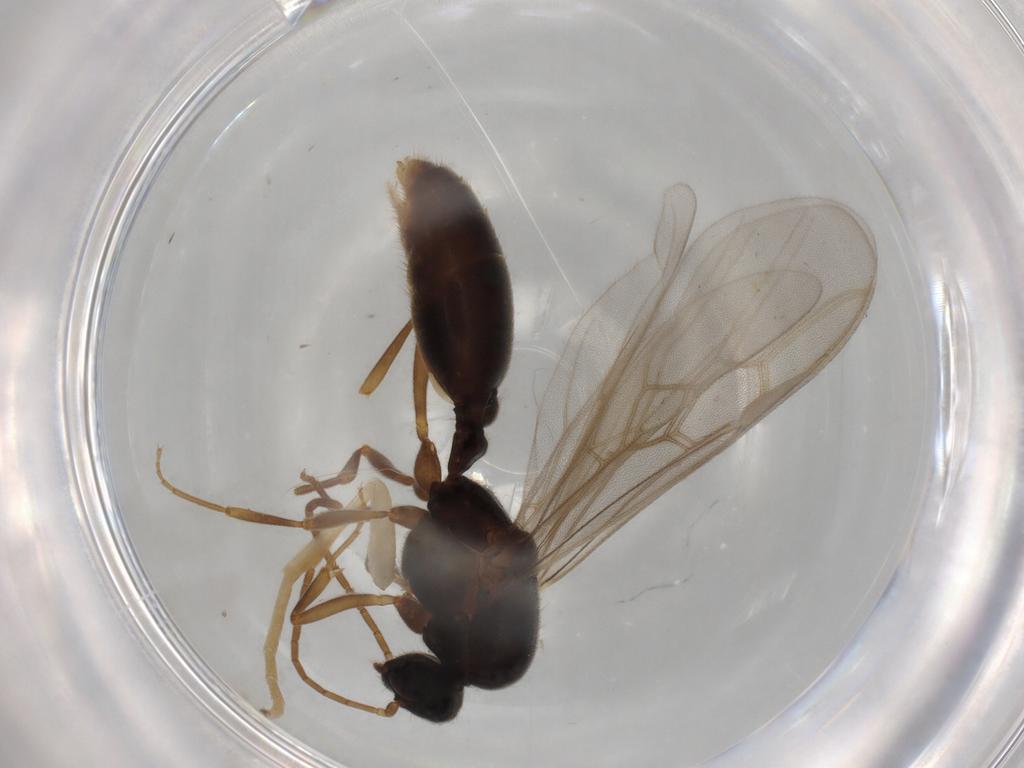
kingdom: Animalia
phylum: Arthropoda
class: Insecta
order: Hymenoptera
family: Formicidae
